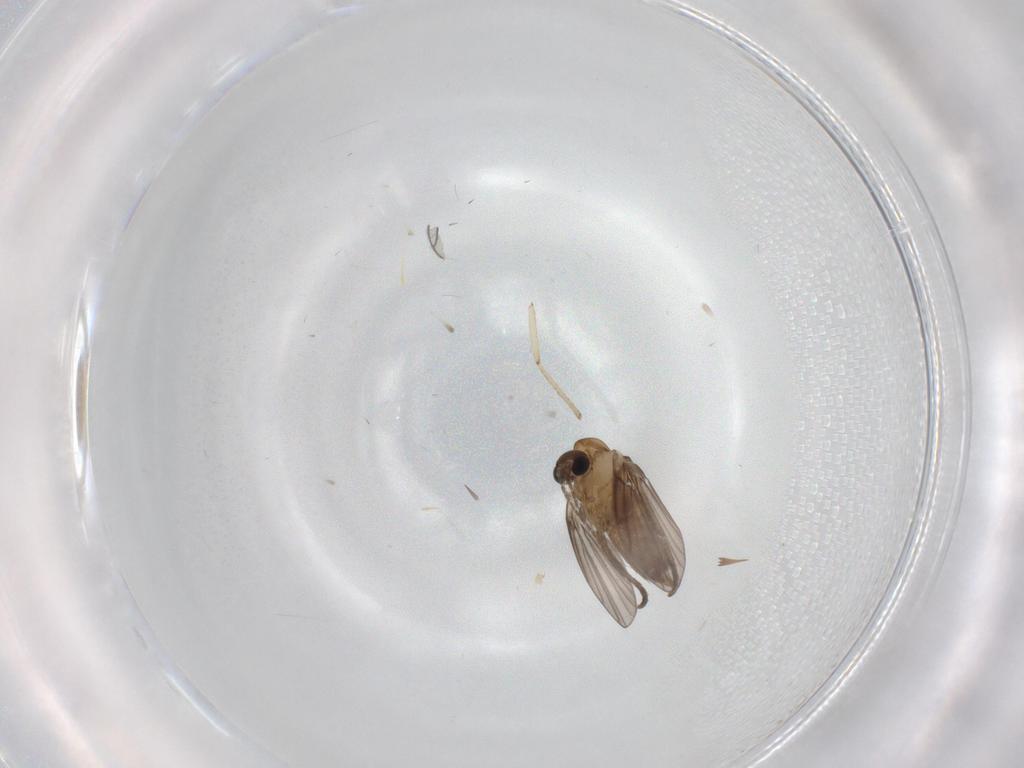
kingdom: Animalia
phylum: Arthropoda
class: Insecta
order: Diptera
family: Sciaridae
